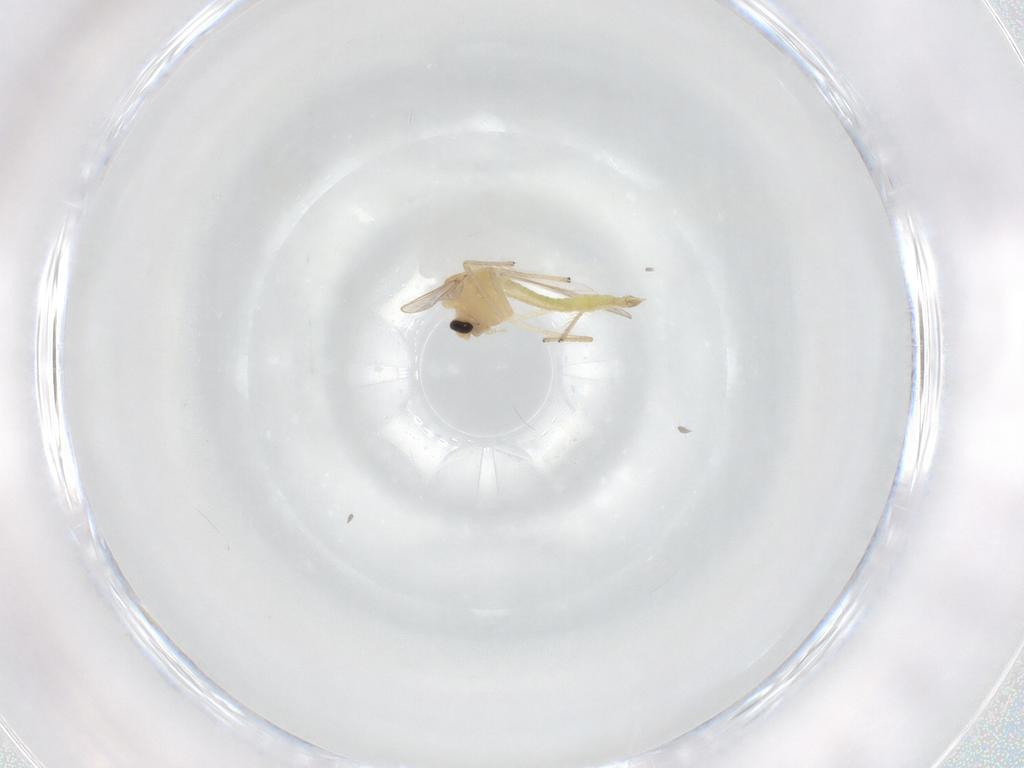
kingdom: Animalia
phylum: Arthropoda
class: Insecta
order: Diptera
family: Chironomidae
